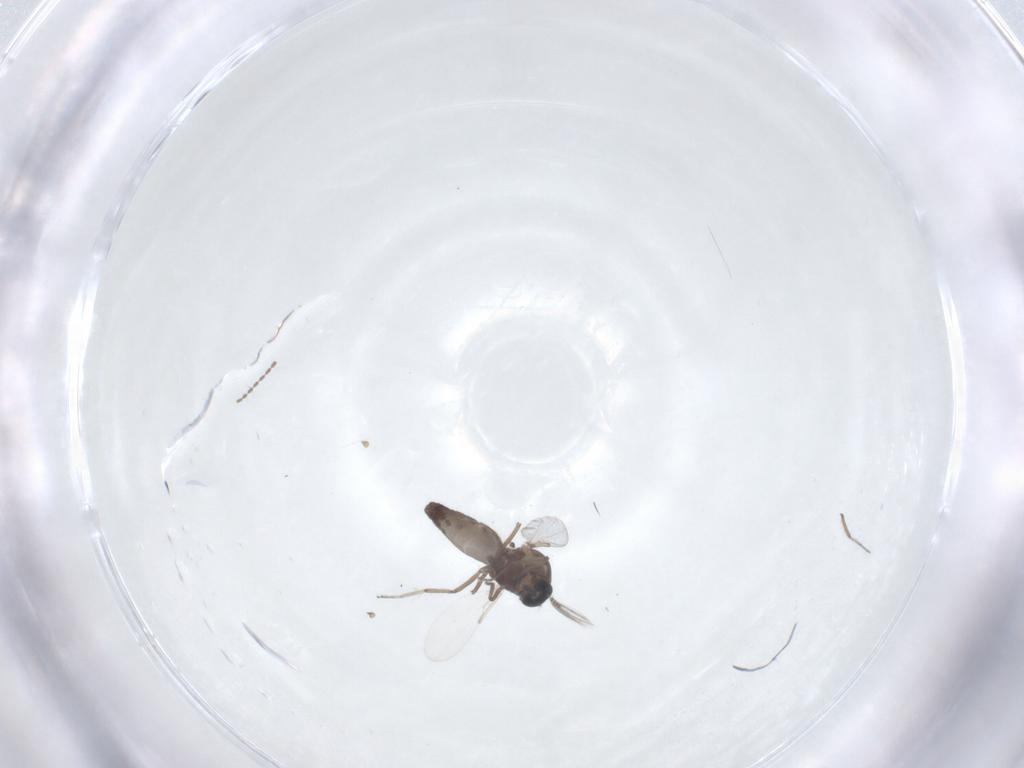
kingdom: Animalia
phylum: Arthropoda
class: Insecta
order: Diptera
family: Ceratopogonidae
